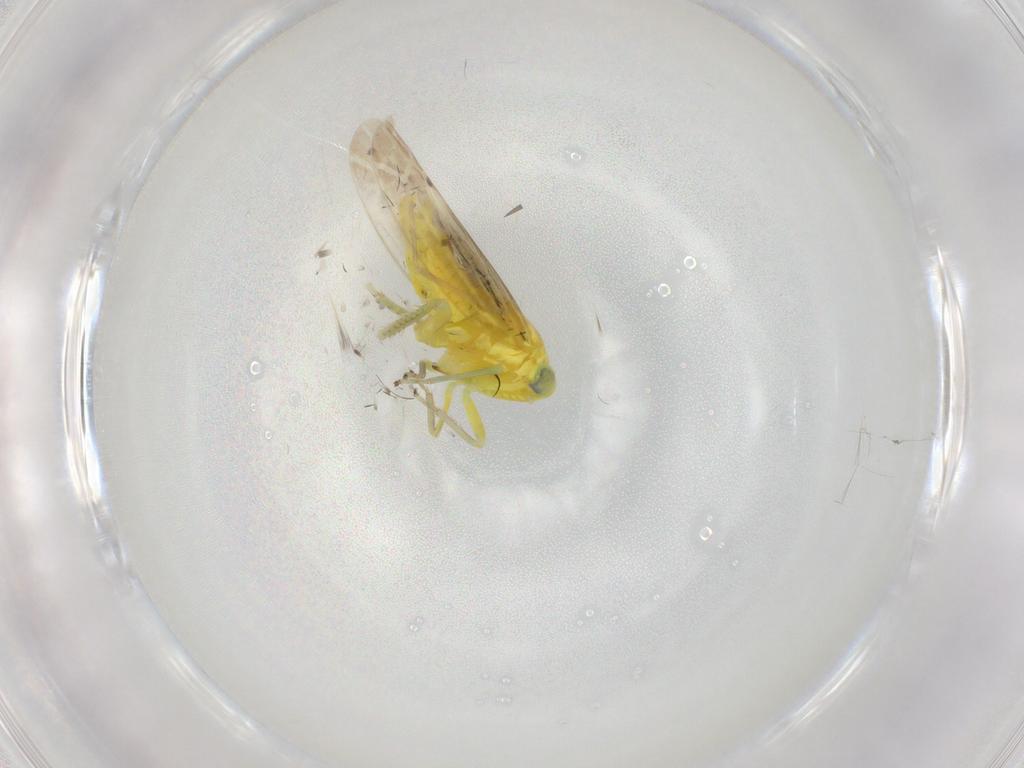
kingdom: Animalia
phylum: Arthropoda
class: Insecta
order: Hemiptera
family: Cicadellidae
